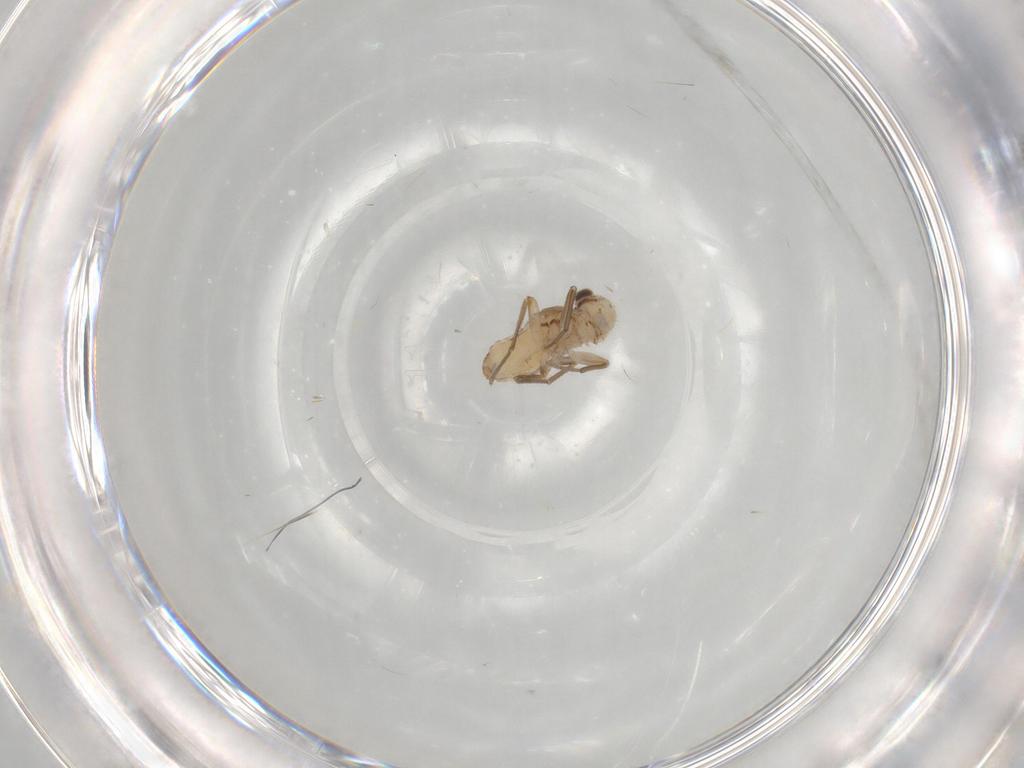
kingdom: Animalia
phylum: Arthropoda
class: Insecta
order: Psocodea
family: Mesopsocidae
